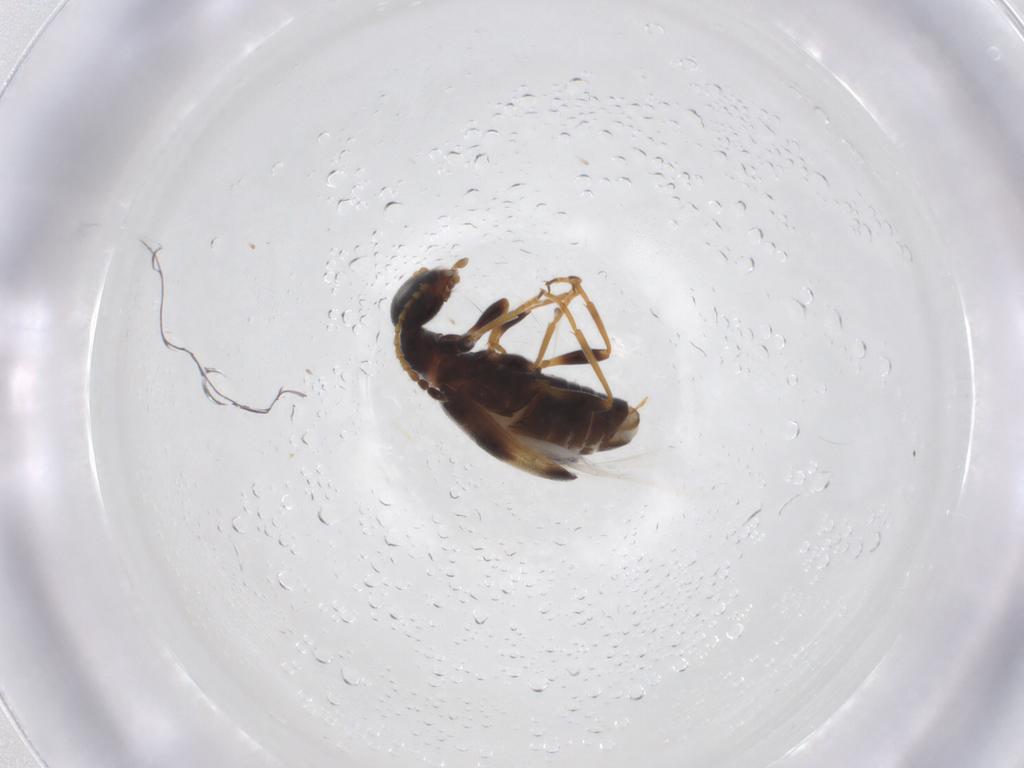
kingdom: Animalia
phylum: Arthropoda
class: Insecta
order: Coleoptera
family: Anthicidae
